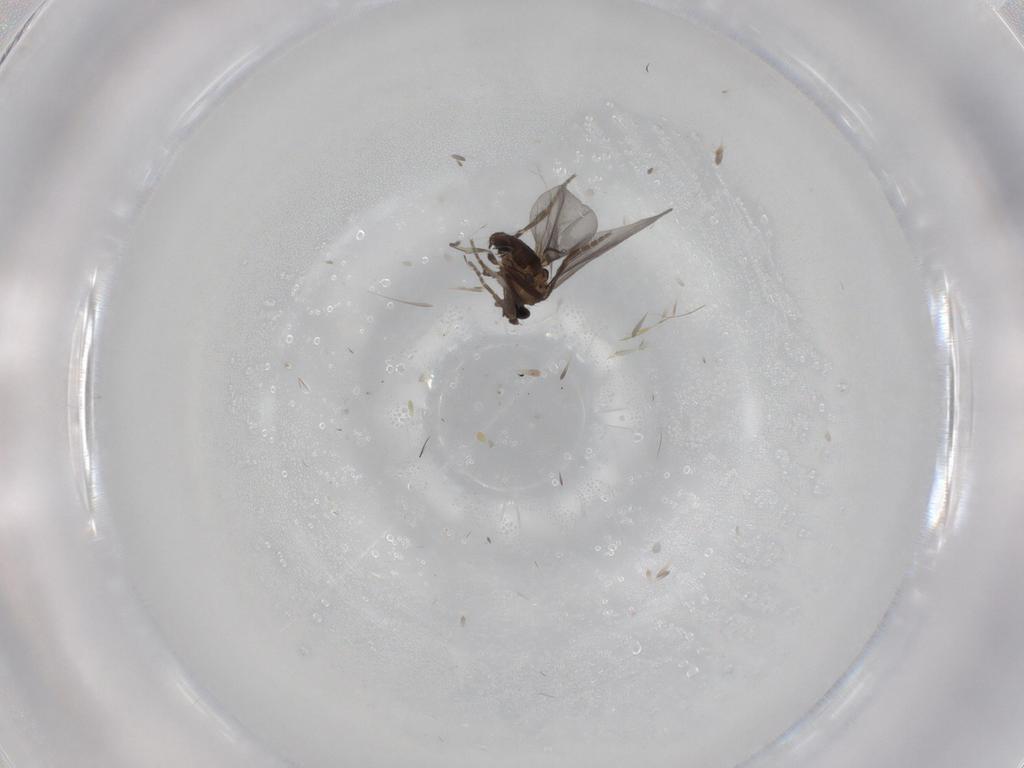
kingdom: Animalia
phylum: Arthropoda
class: Insecta
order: Diptera
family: Phoridae
